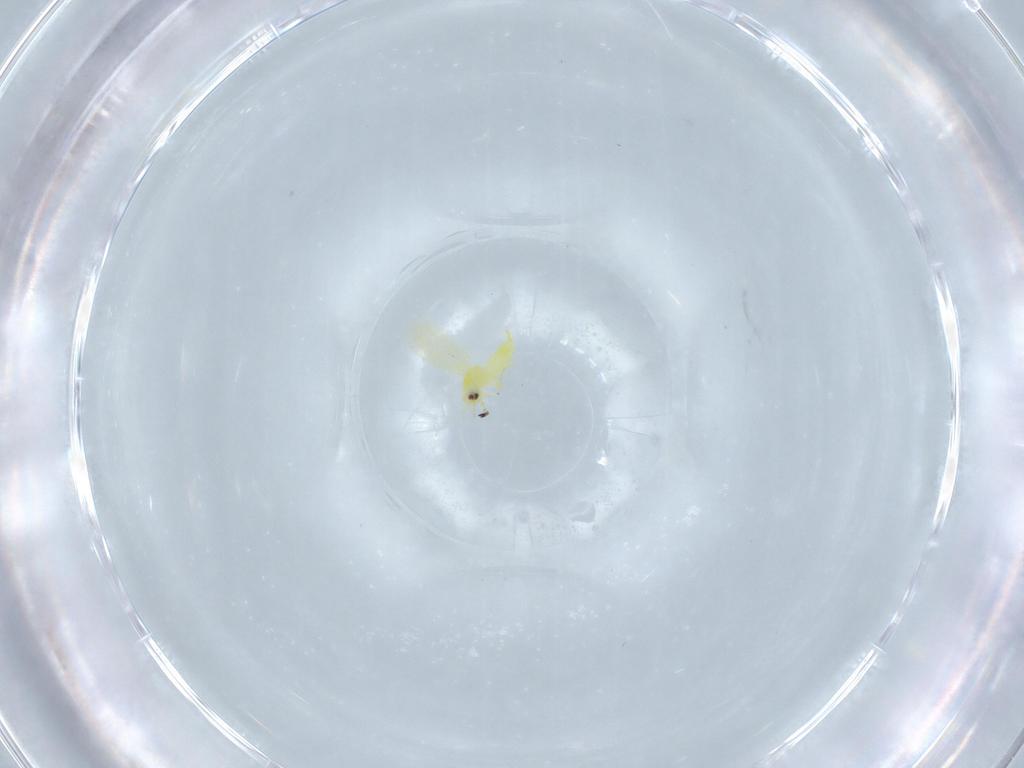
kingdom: Animalia
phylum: Arthropoda
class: Insecta
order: Hemiptera
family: Aleyrodidae
